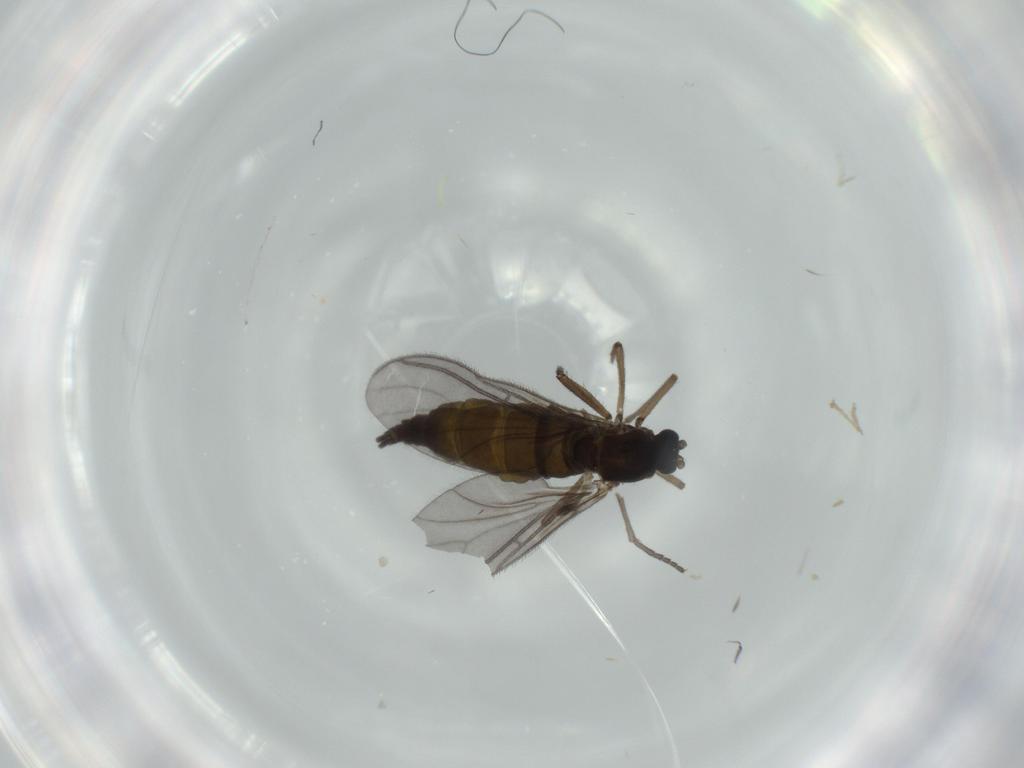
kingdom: Animalia
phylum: Arthropoda
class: Insecta
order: Diptera
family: Sciaridae
